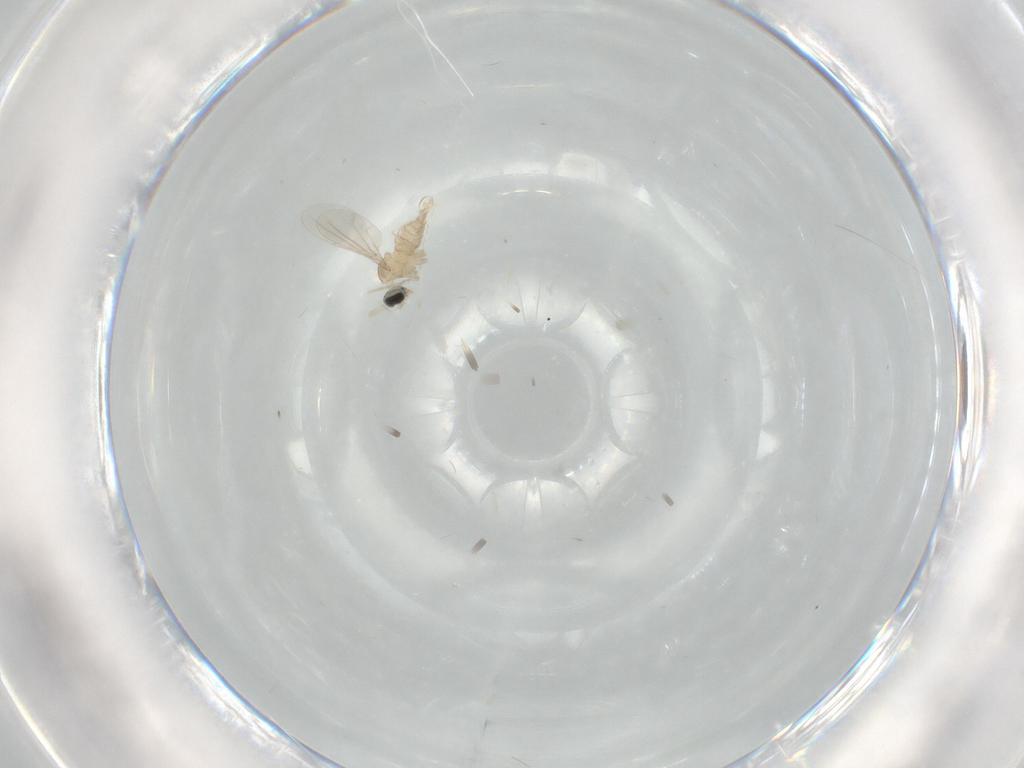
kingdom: Animalia
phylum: Arthropoda
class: Insecta
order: Diptera
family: Cecidomyiidae
